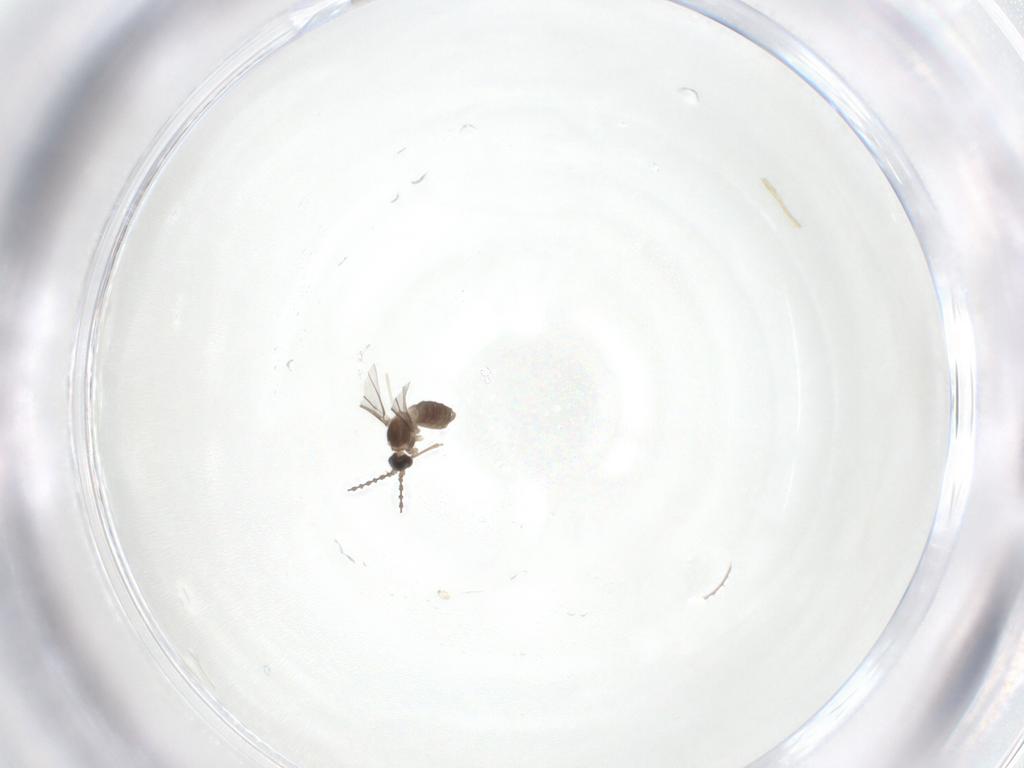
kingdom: Animalia
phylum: Arthropoda
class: Insecta
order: Diptera
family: Cecidomyiidae
